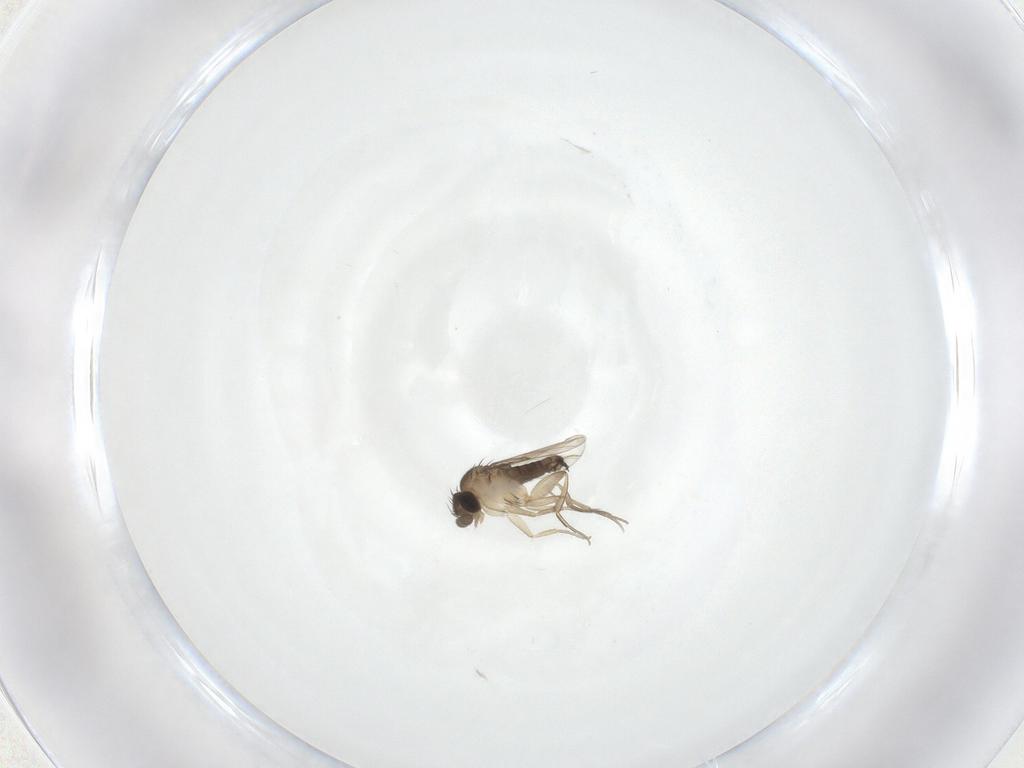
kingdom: Animalia
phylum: Arthropoda
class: Insecta
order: Diptera
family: Phoridae
